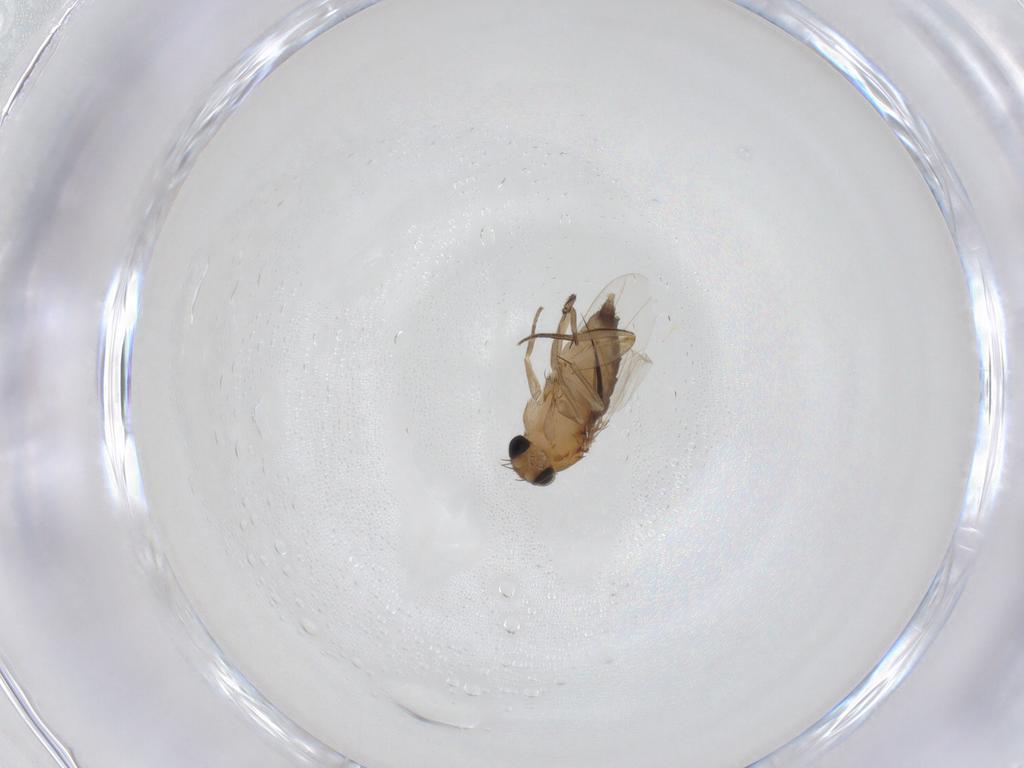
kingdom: Animalia
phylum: Arthropoda
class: Insecta
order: Diptera
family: Phoridae
